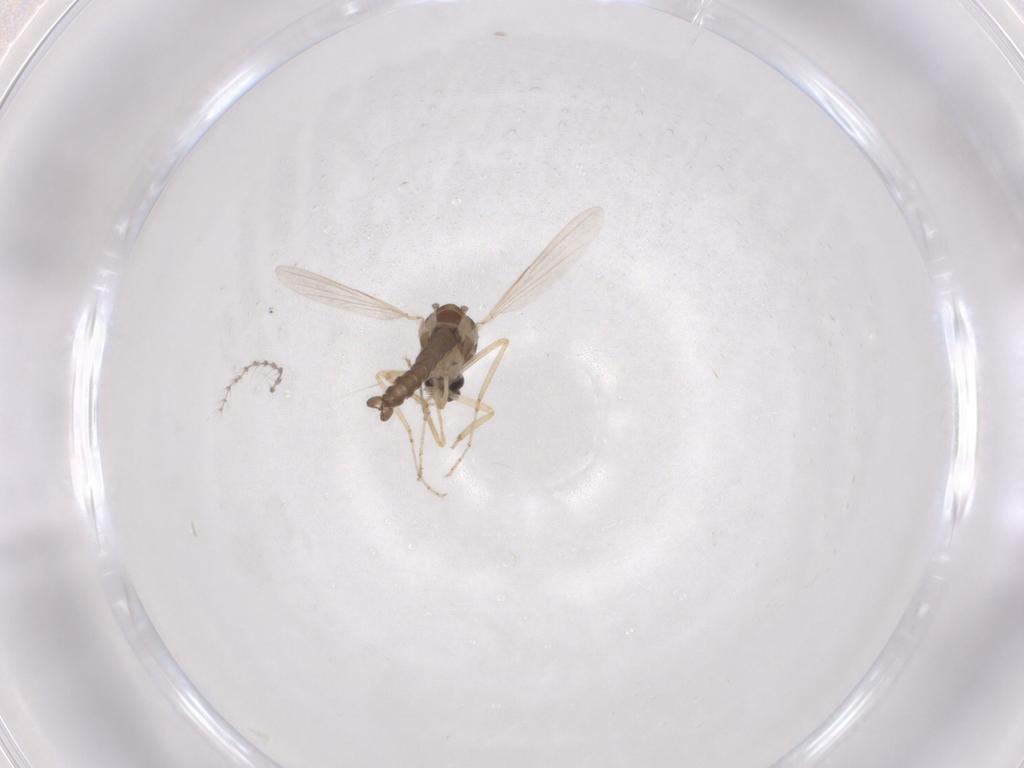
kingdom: Animalia
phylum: Arthropoda
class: Insecta
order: Diptera
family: Ceratopogonidae
